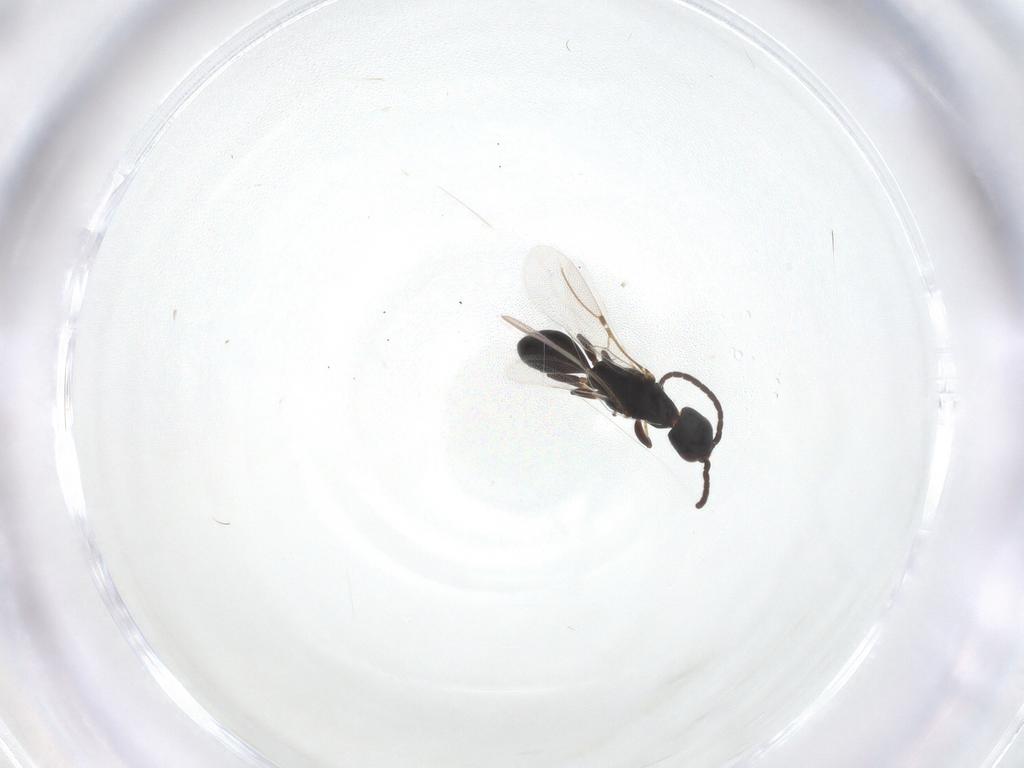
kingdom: Animalia
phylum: Arthropoda
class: Insecta
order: Hymenoptera
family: Bethylidae
